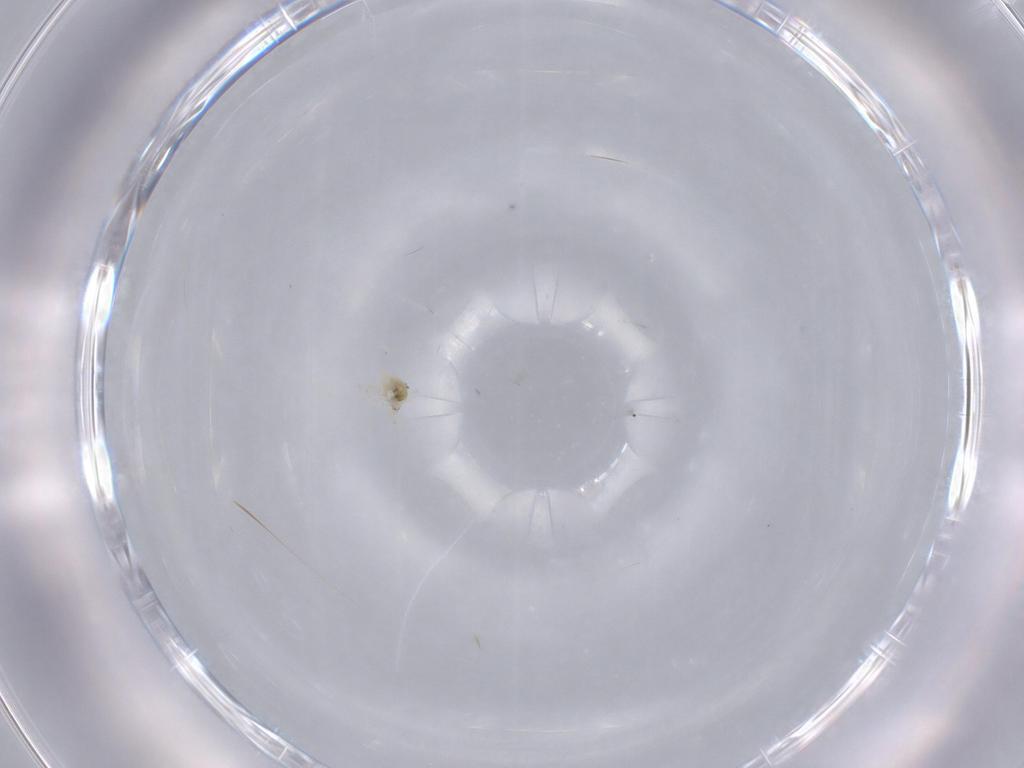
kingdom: Animalia
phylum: Arthropoda
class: Insecta
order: Neuroptera
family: Coniopterygidae
